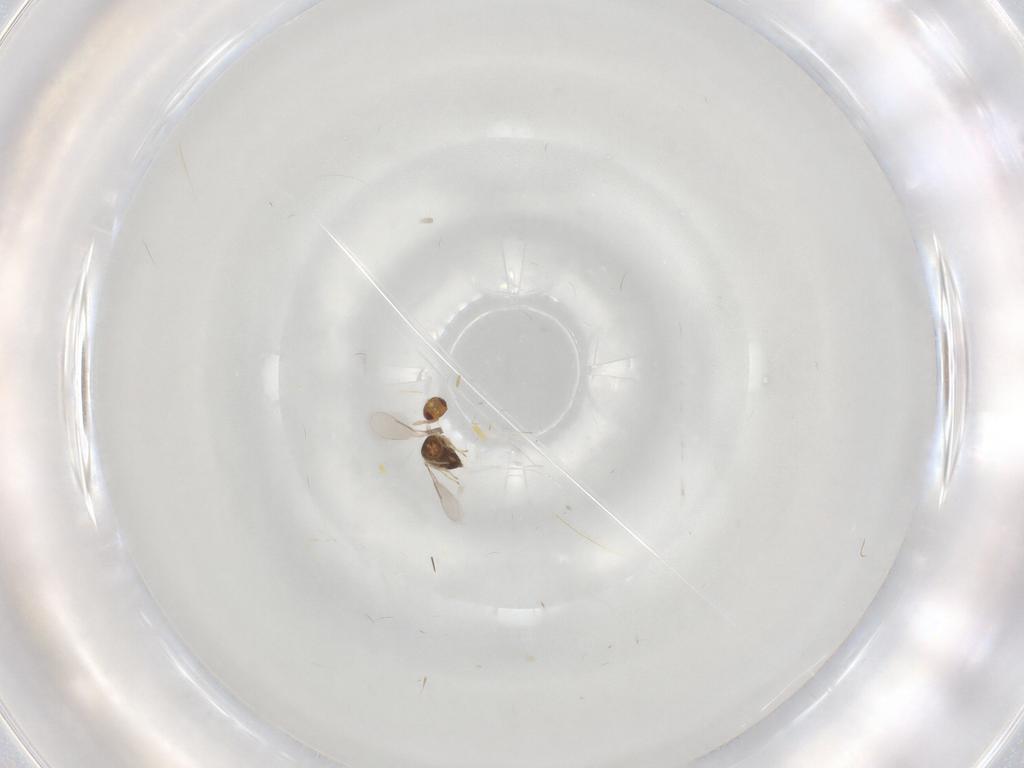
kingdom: Animalia
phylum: Arthropoda
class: Insecta
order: Hymenoptera
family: Aphelinidae
